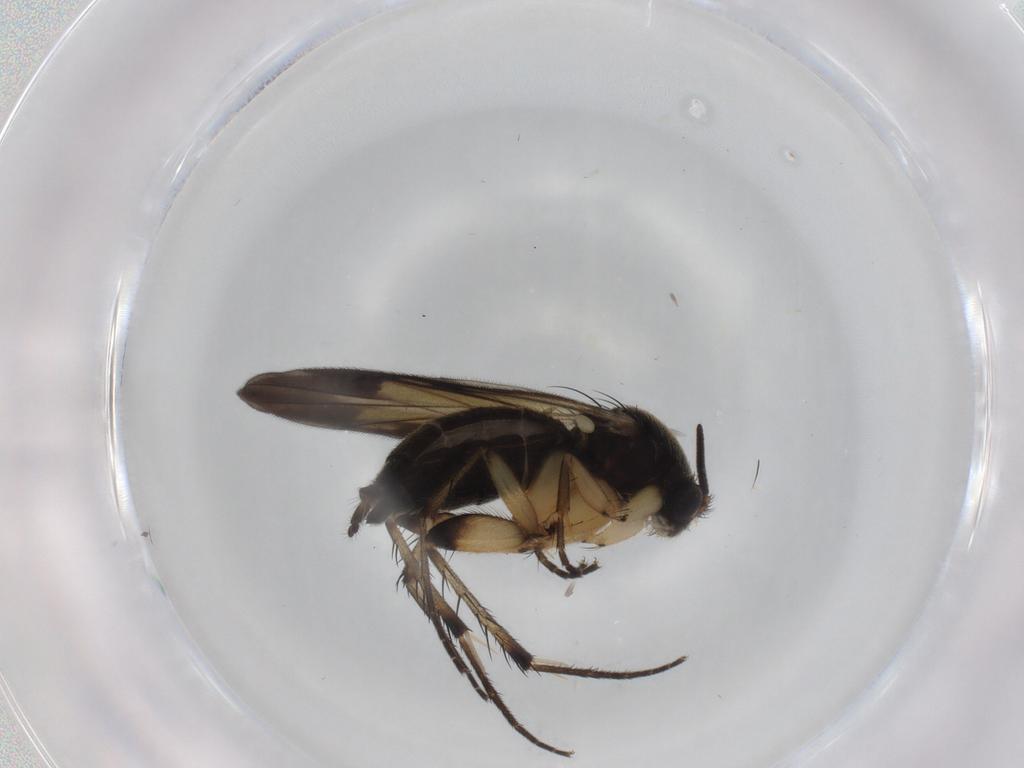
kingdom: Animalia
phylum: Arthropoda
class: Insecta
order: Diptera
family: Mycetophilidae
